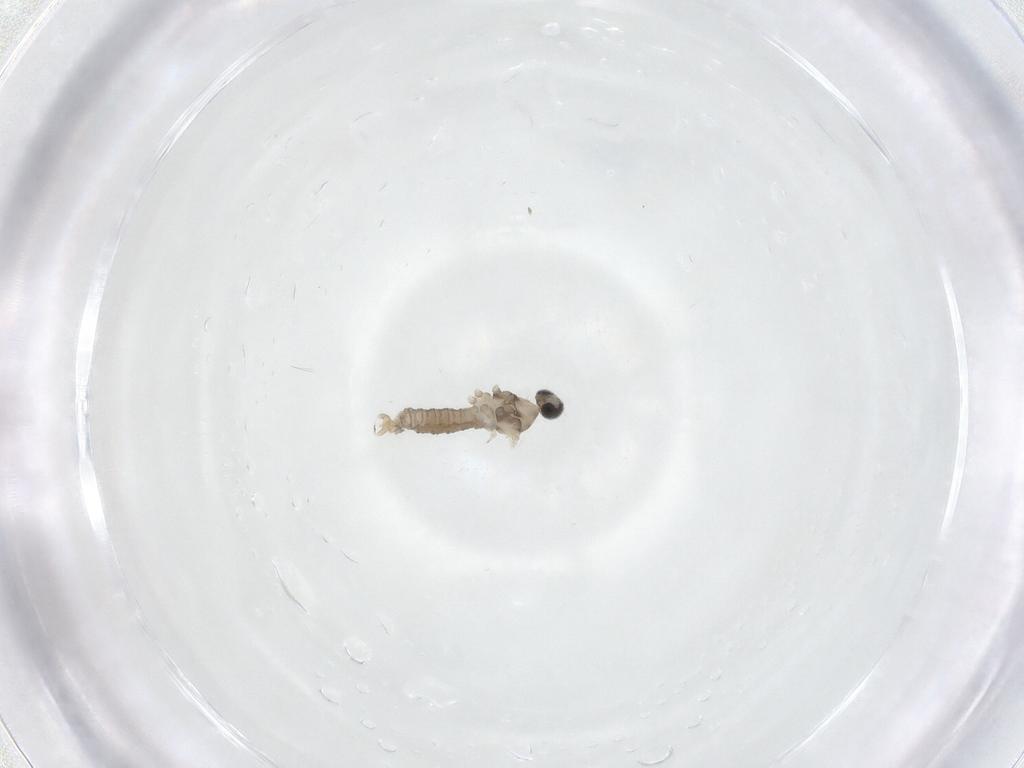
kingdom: Animalia
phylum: Arthropoda
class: Insecta
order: Diptera
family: Cecidomyiidae
